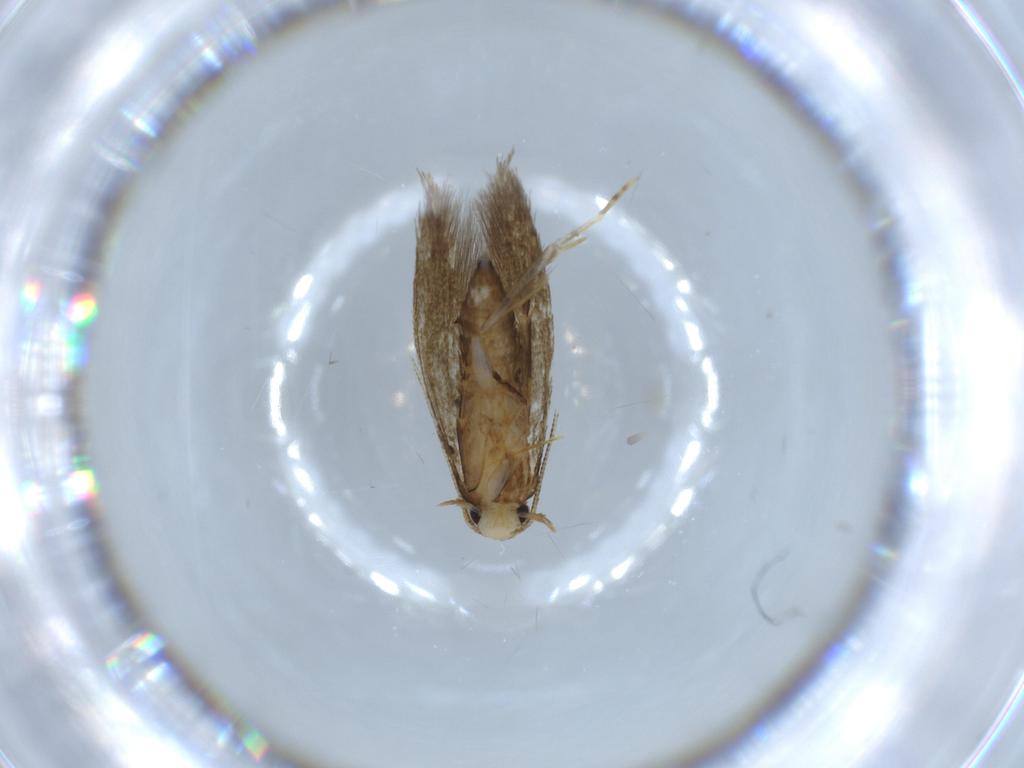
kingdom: Animalia
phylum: Arthropoda
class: Insecta
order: Lepidoptera
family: Tineidae
